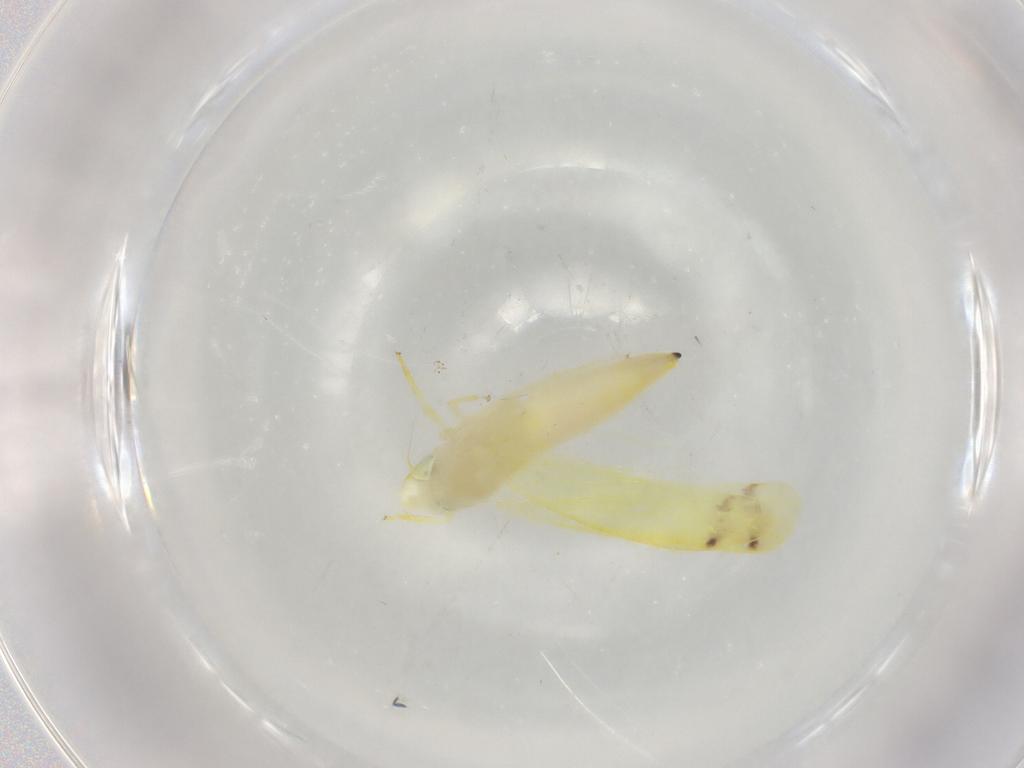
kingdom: Animalia
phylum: Arthropoda
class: Insecta
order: Hemiptera
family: Cicadellidae
